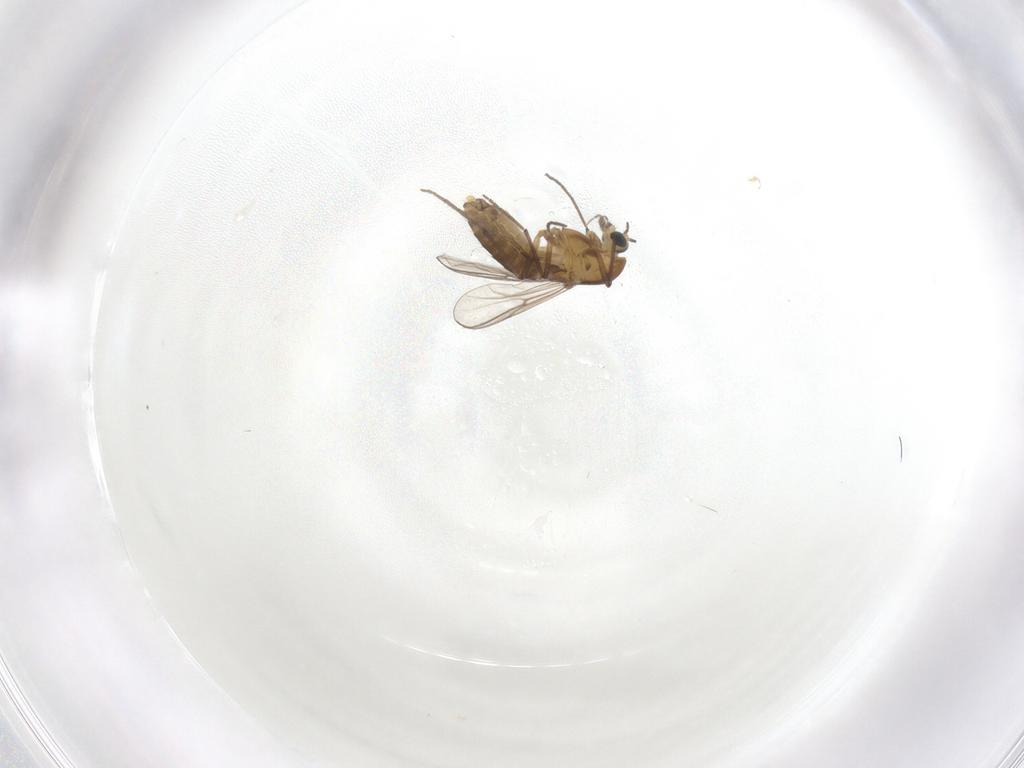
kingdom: Animalia
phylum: Arthropoda
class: Insecta
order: Diptera
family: Chironomidae
